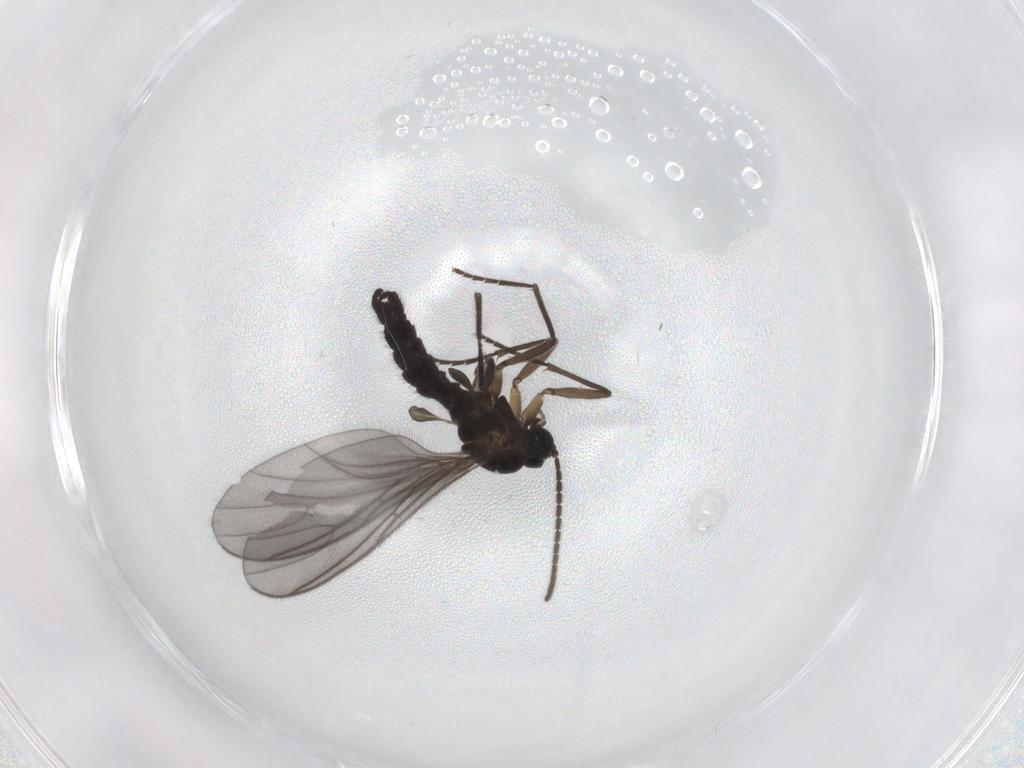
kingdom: Animalia
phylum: Arthropoda
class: Insecta
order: Diptera
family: Sciaridae
